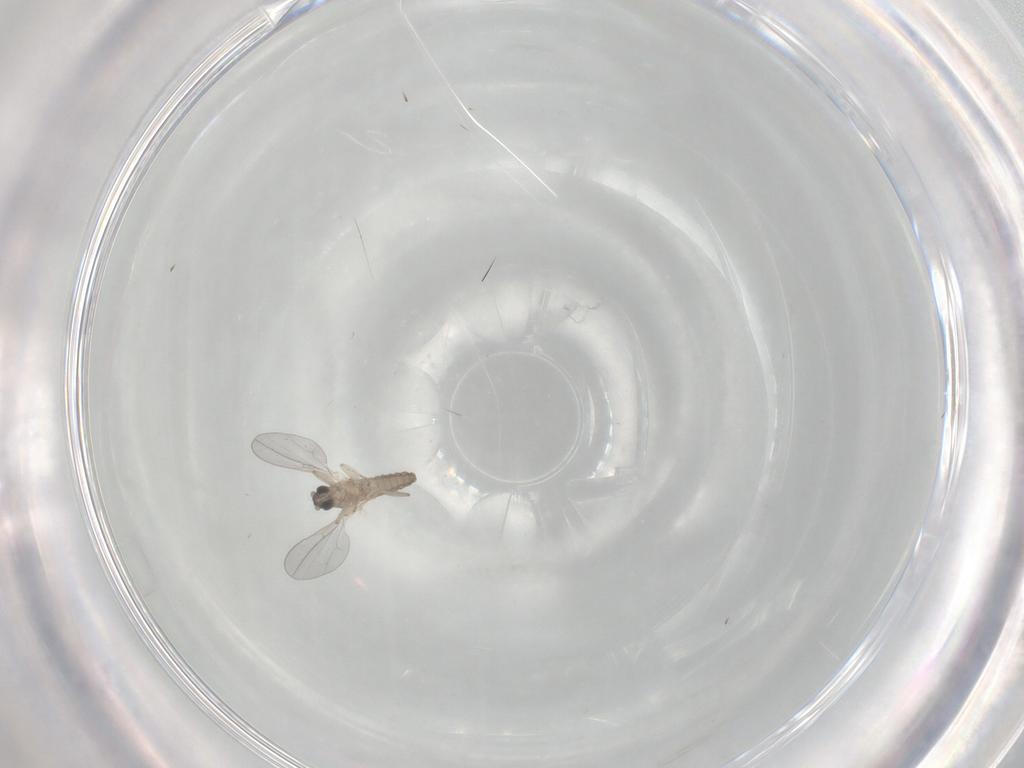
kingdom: Animalia
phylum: Arthropoda
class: Insecta
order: Diptera
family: Cecidomyiidae
